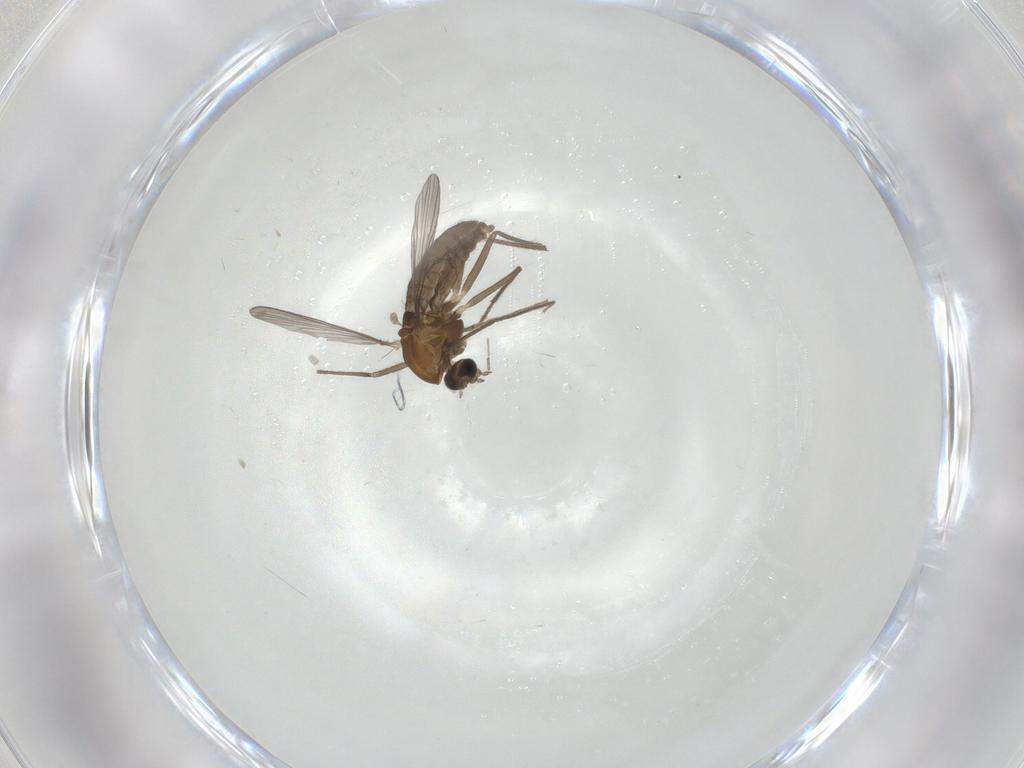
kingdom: Animalia
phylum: Arthropoda
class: Insecta
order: Diptera
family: Chironomidae
